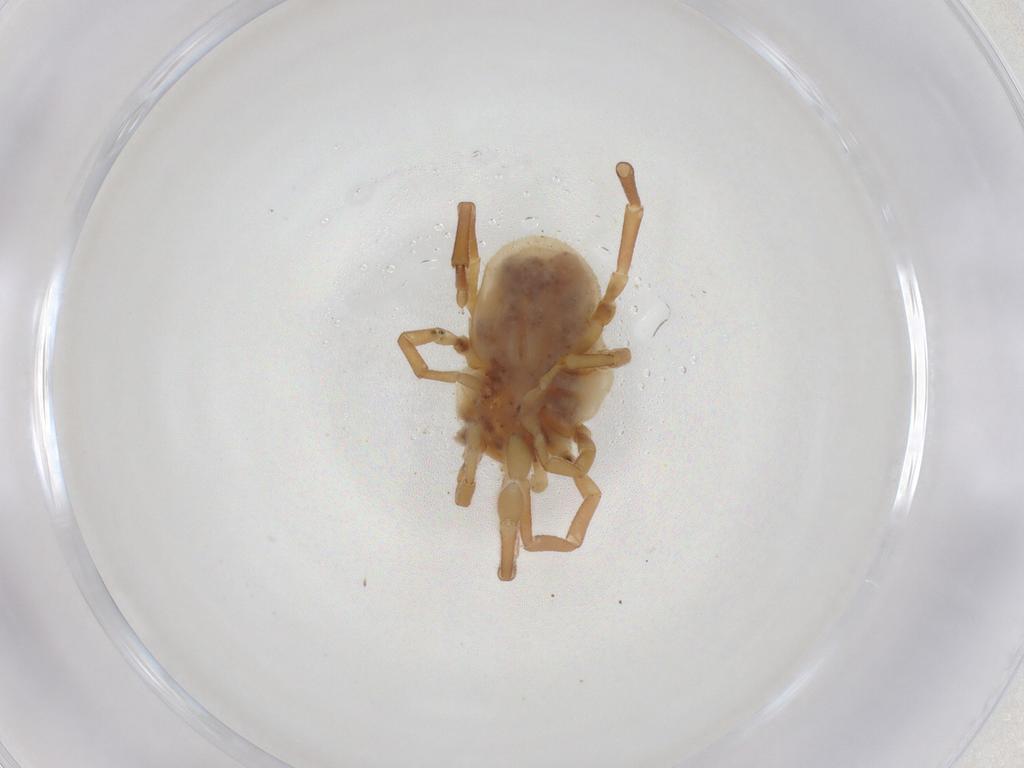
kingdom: Animalia
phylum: Arthropoda
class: Arachnida
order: Trombidiformes
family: Erythraeidae
